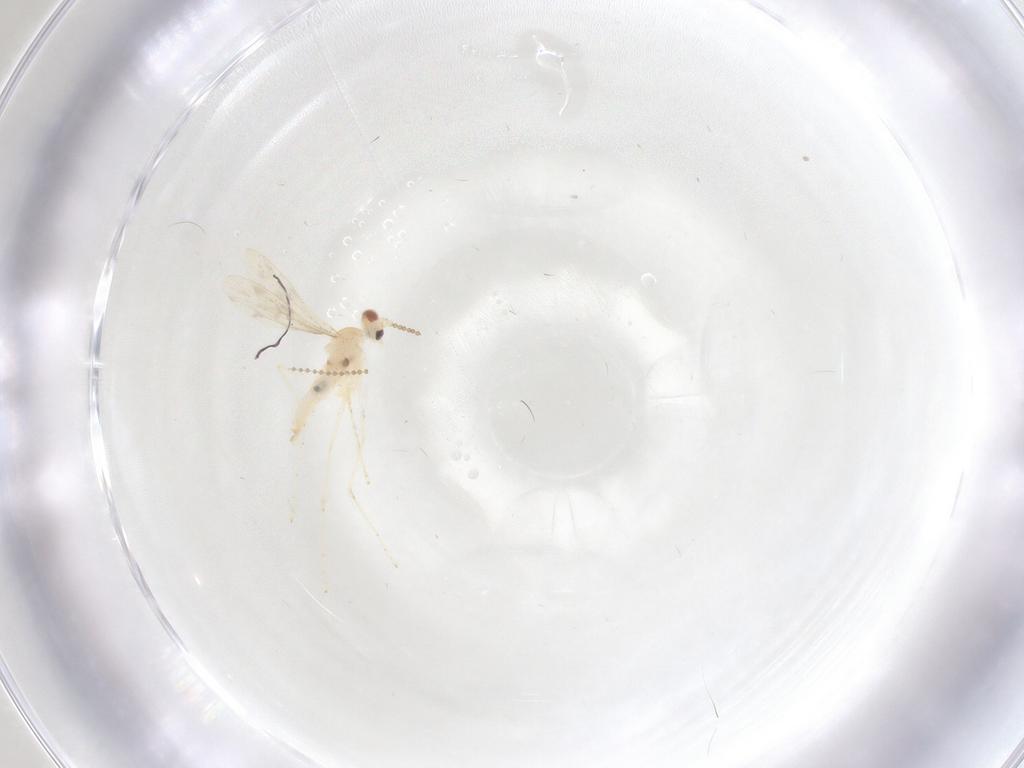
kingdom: Animalia
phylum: Arthropoda
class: Insecta
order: Diptera
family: Cecidomyiidae
